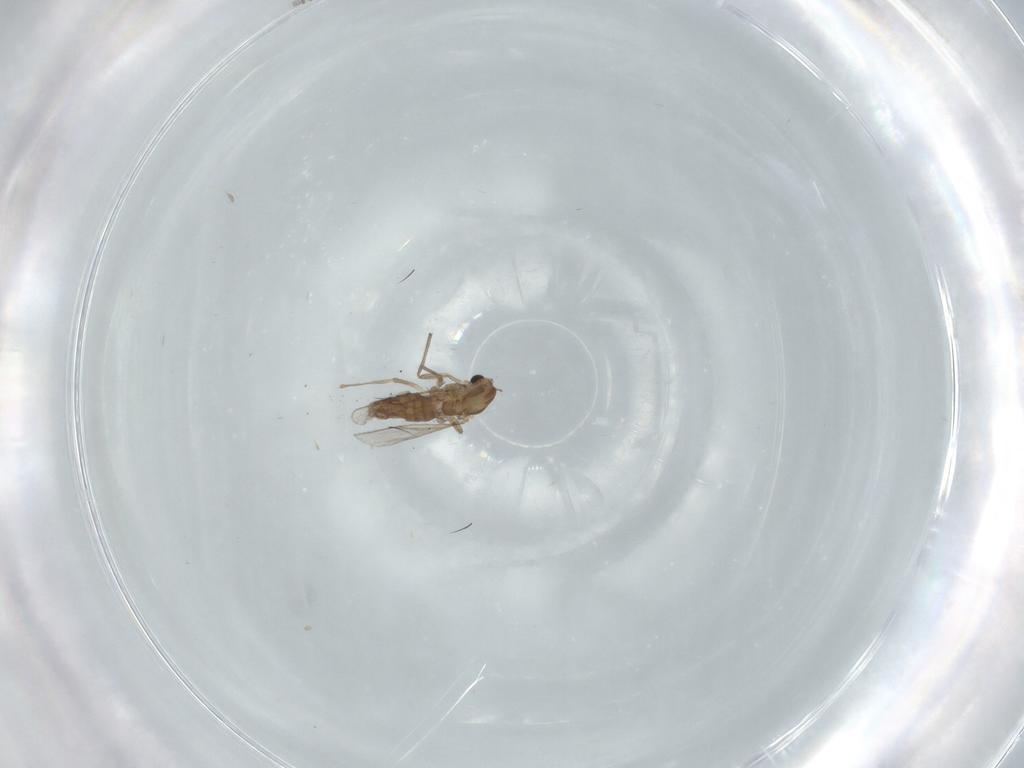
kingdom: Animalia
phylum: Arthropoda
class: Insecta
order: Diptera
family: Chironomidae
